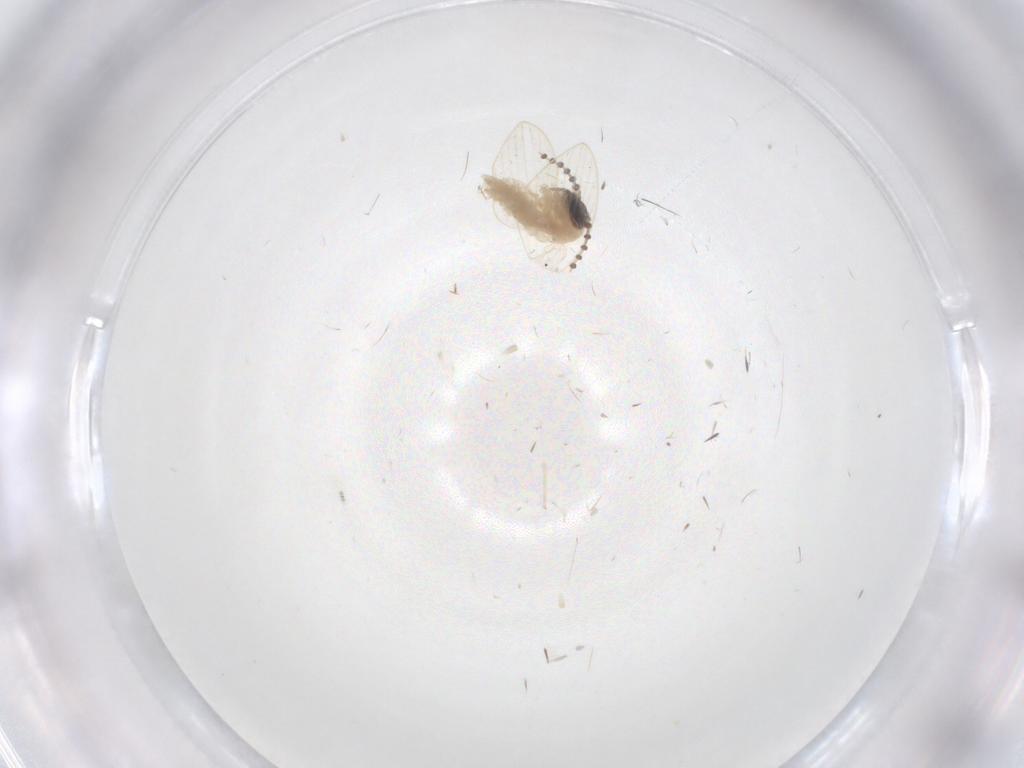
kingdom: Animalia
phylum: Arthropoda
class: Insecta
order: Diptera
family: Psychodidae
